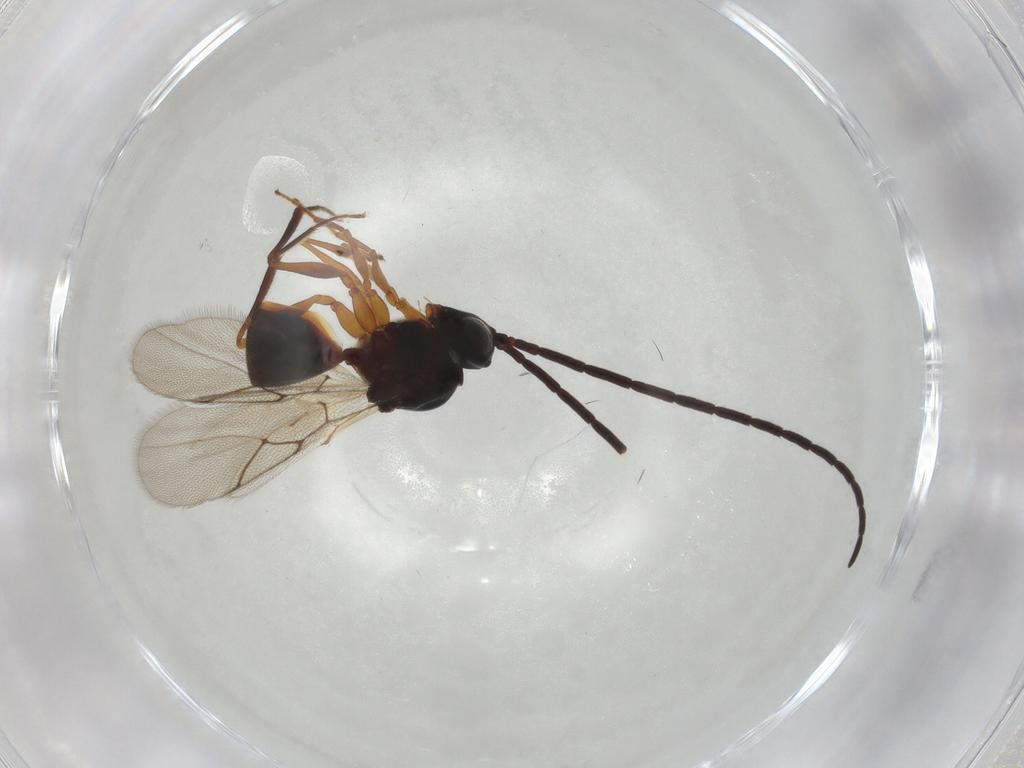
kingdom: Animalia
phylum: Arthropoda
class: Insecta
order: Hymenoptera
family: Figitidae
